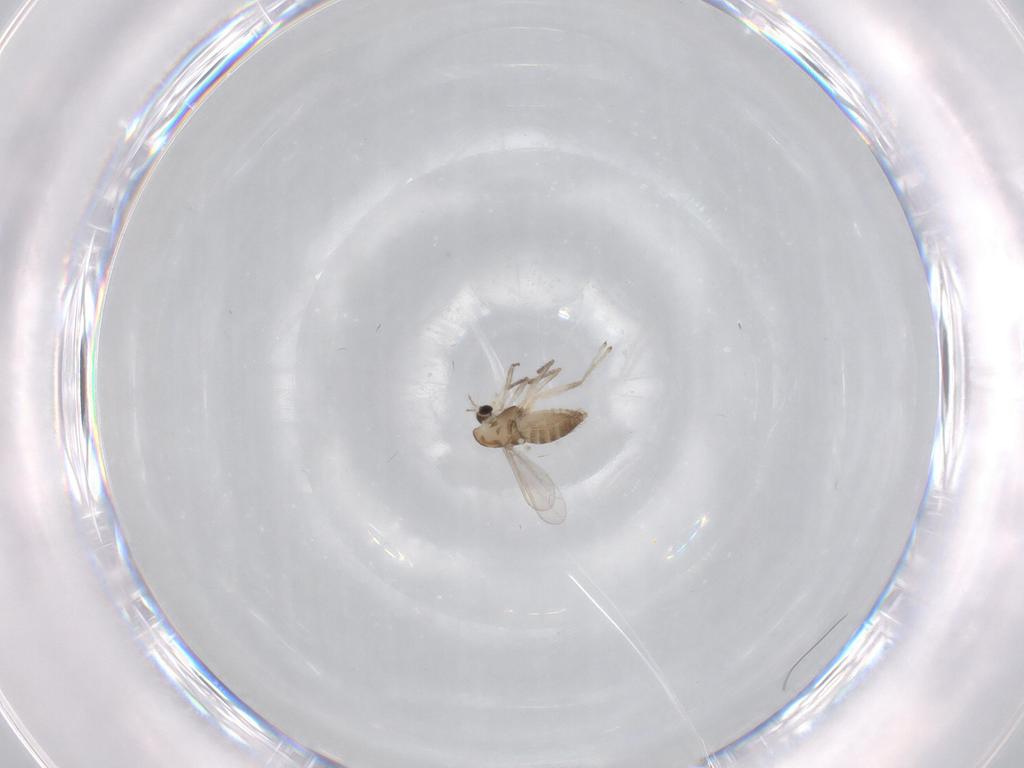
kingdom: Animalia
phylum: Arthropoda
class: Insecta
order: Diptera
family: Chironomidae
